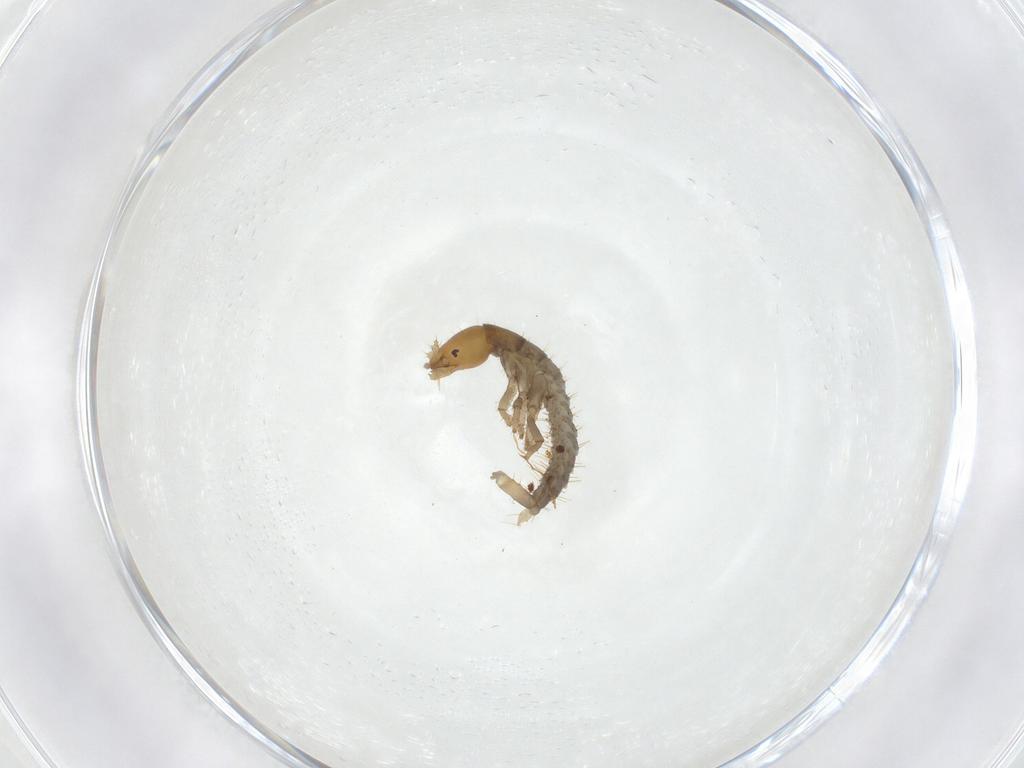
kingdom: Animalia
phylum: Arthropoda
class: Insecta
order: Coleoptera
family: Staphylinidae
